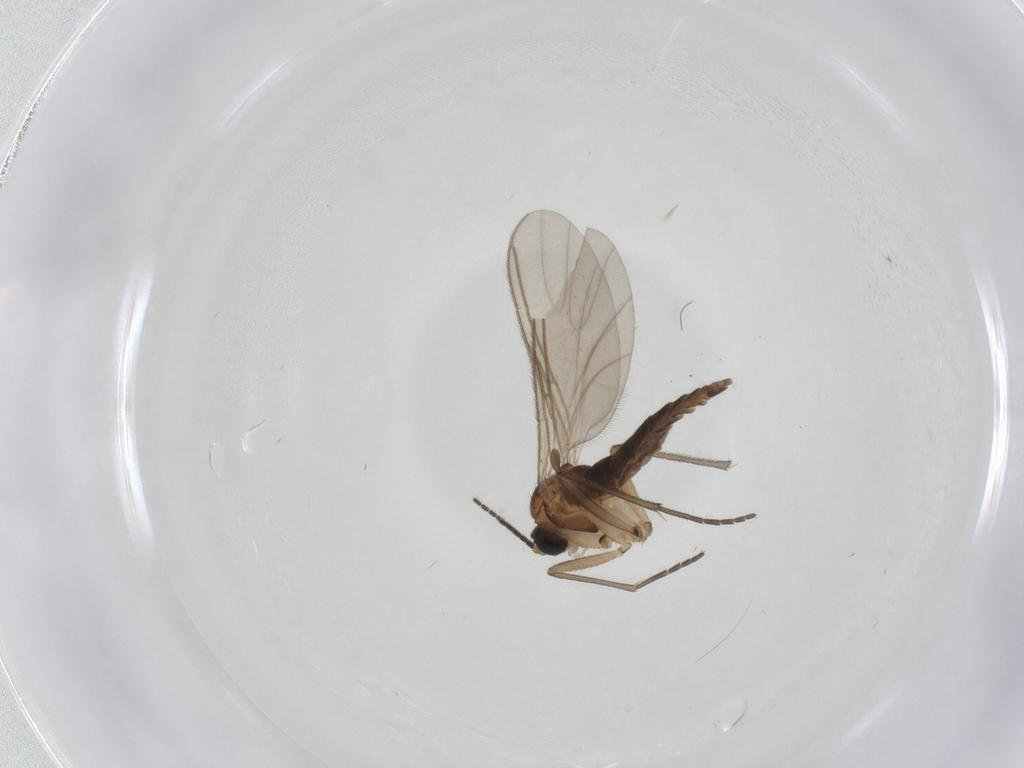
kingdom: Animalia
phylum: Arthropoda
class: Insecta
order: Diptera
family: Sciaridae
